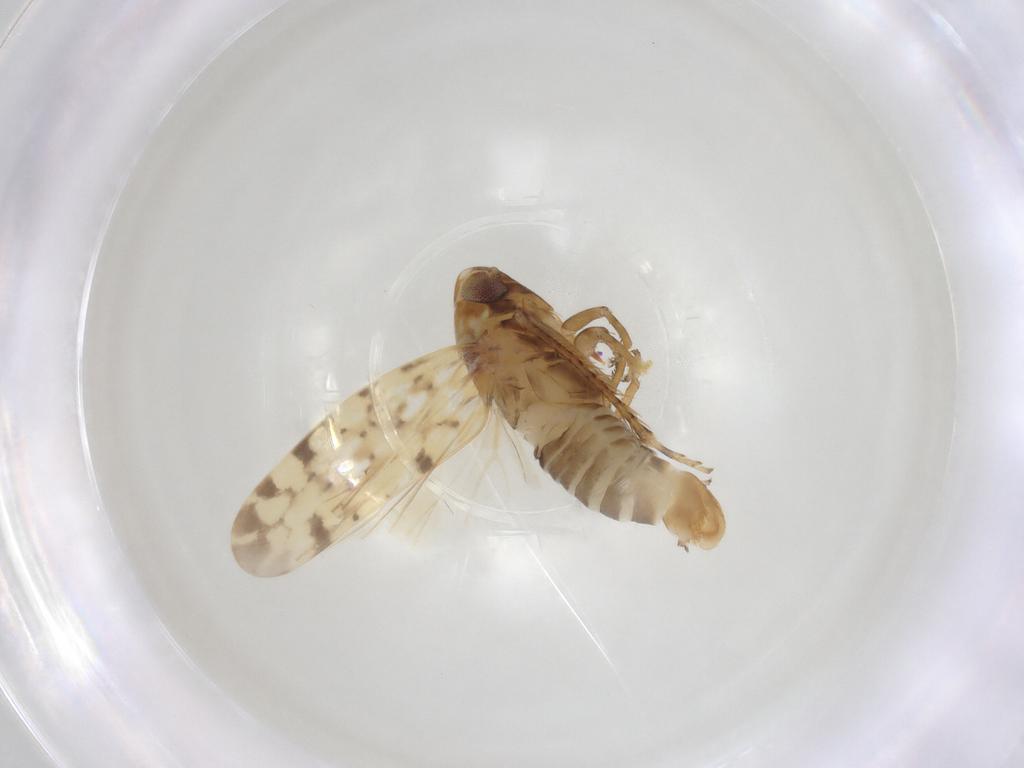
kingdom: Animalia
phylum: Arthropoda
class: Insecta
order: Hemiptera
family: Cicadellidae
